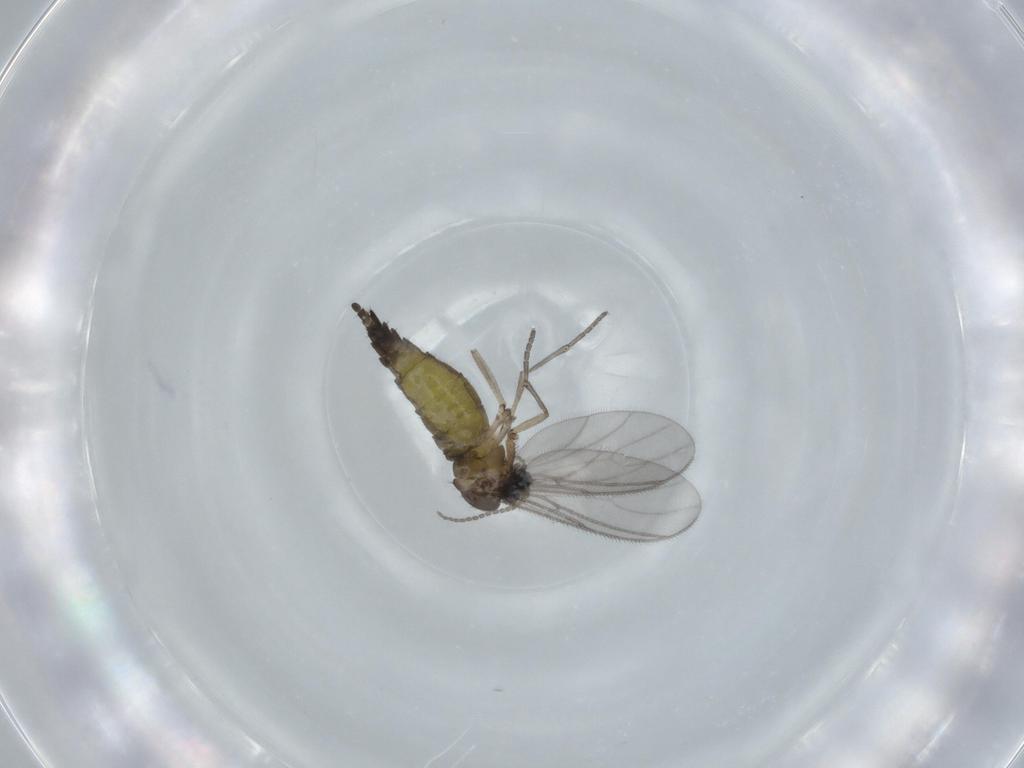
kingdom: Animalia
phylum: Arthropoda
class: Insecta
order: Diptera
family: Sciaridae
